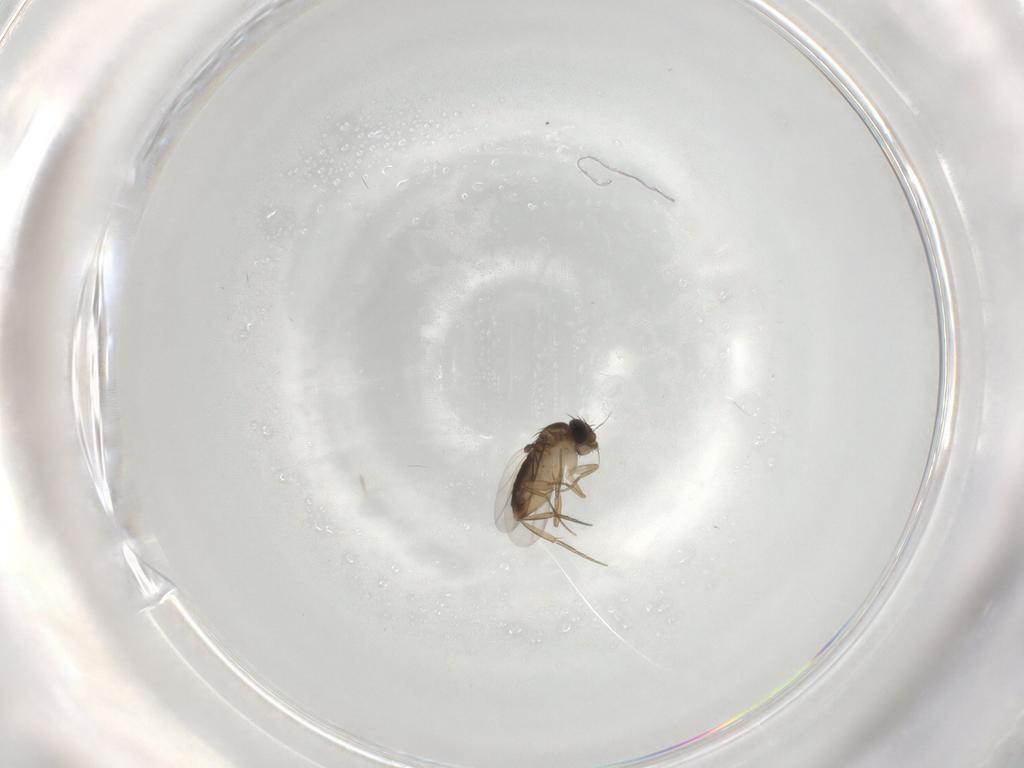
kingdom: Animalia
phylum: Arthropoda
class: Insecta
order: Diptera
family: Phoridae
